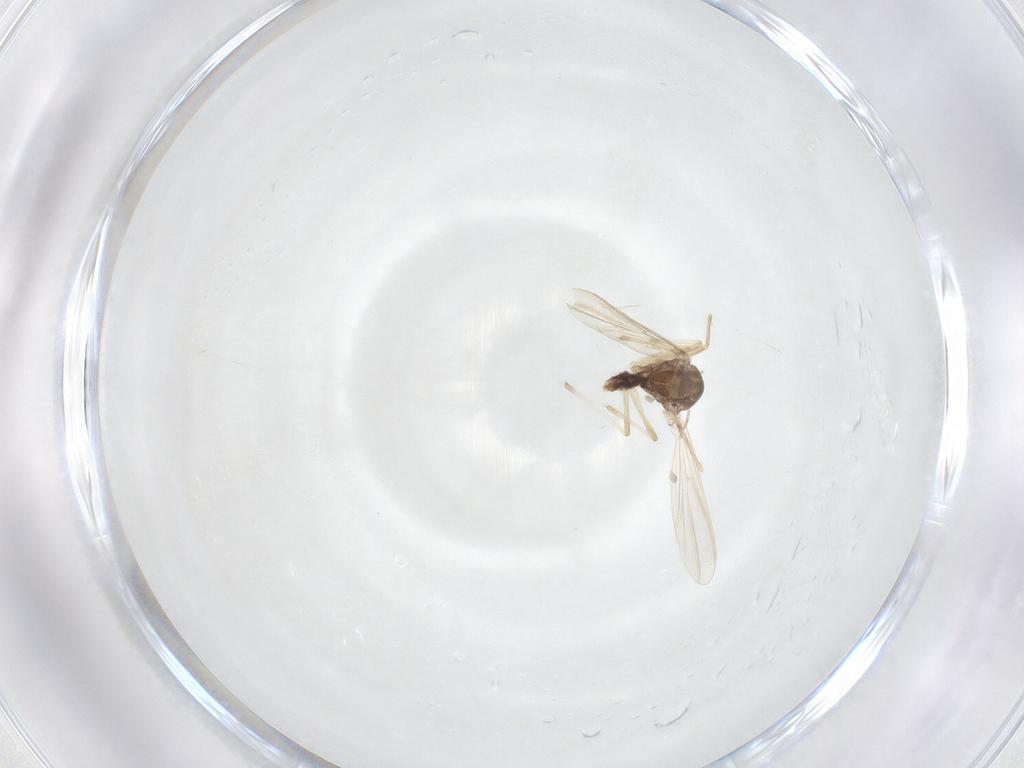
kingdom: Animalia
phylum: Arthropoda
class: Insecta
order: Diptera
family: Chironomidae
